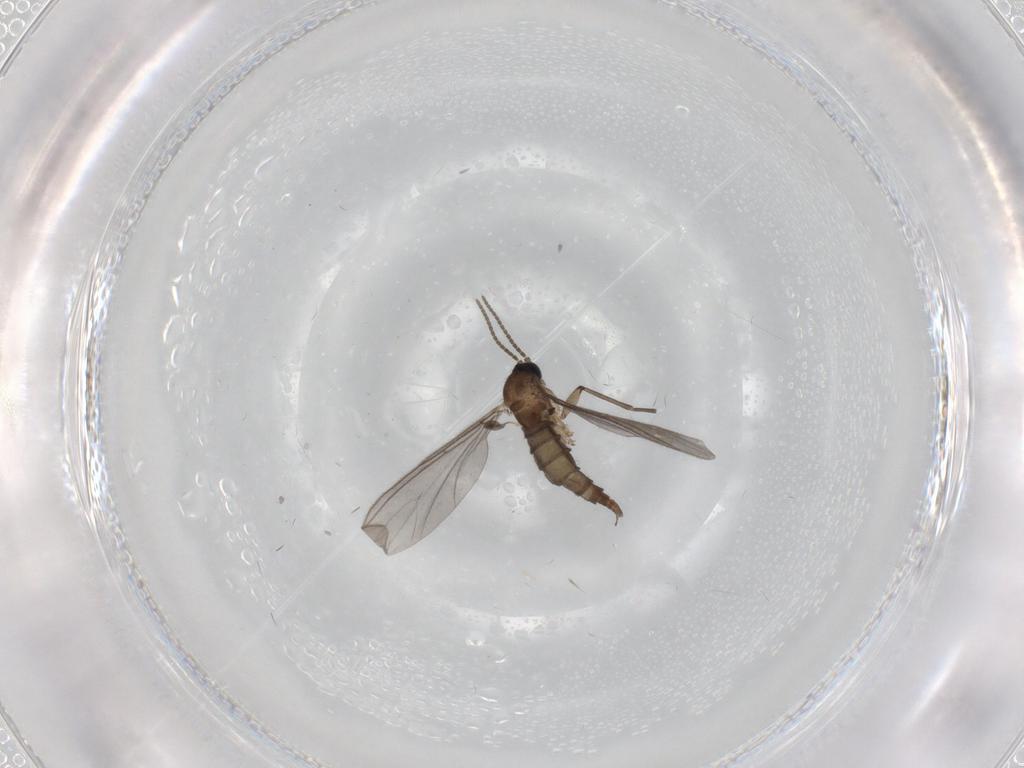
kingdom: Animalia
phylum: Arthropoda
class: Insecta
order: Diptera
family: Sciaridae
